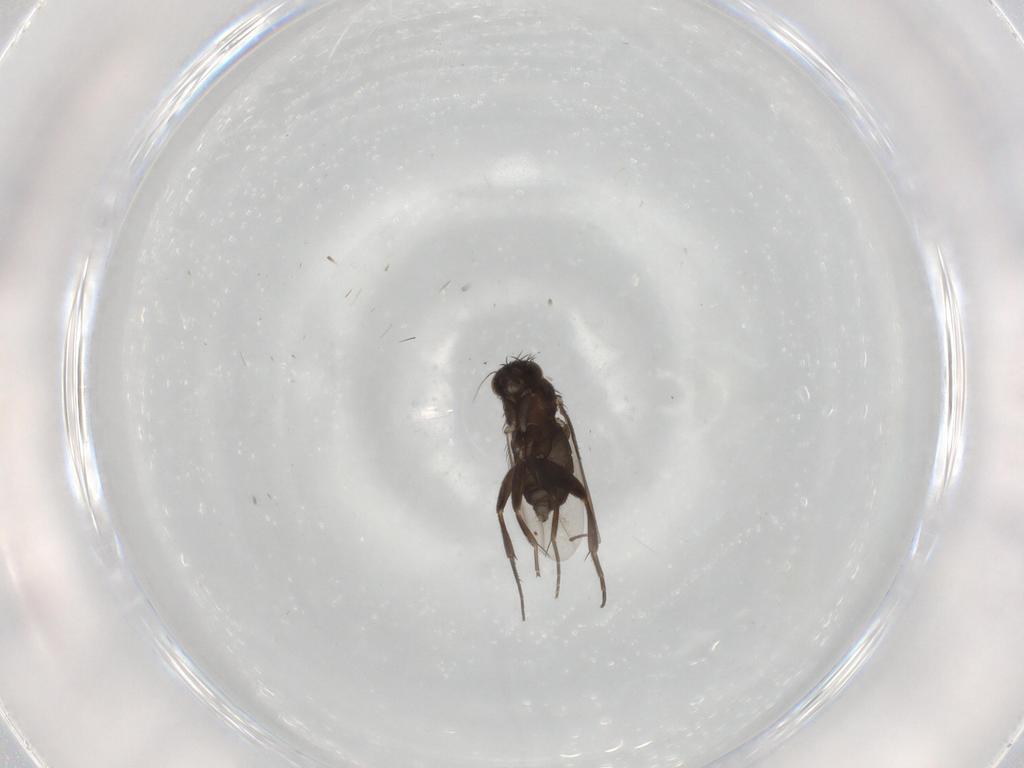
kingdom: Animalia
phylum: Arthropoda
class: Insecta
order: Diptera
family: Phoridae
